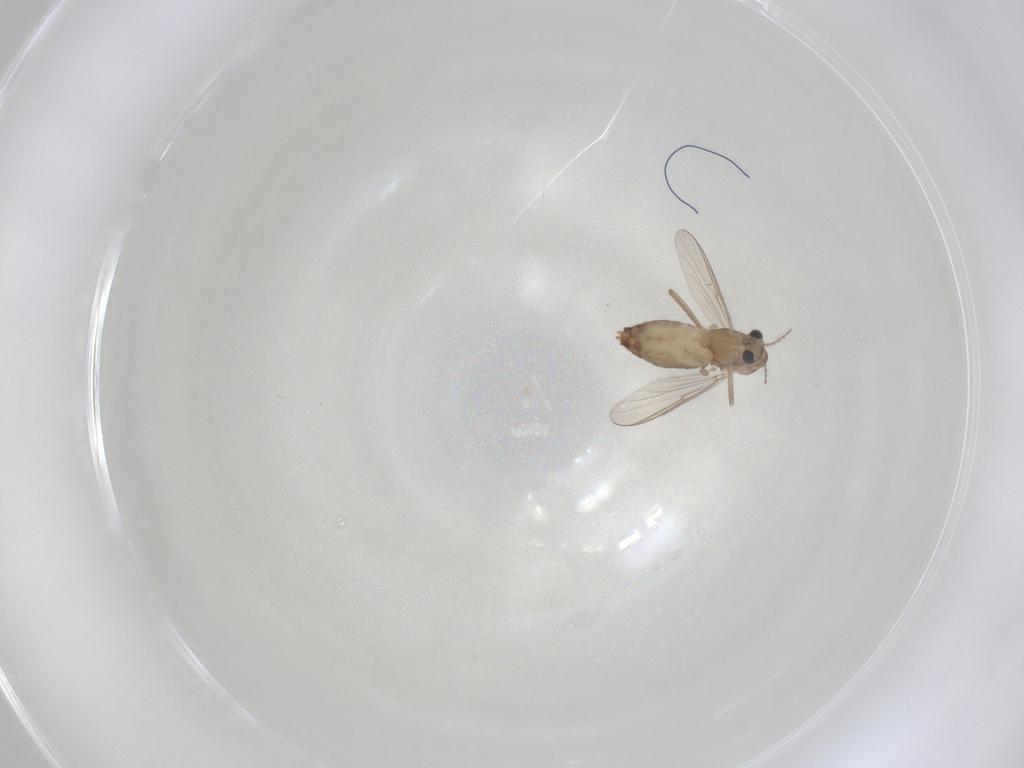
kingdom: Animalia
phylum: Arthropoda
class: Insecta
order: Diptera
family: Chironomidae
